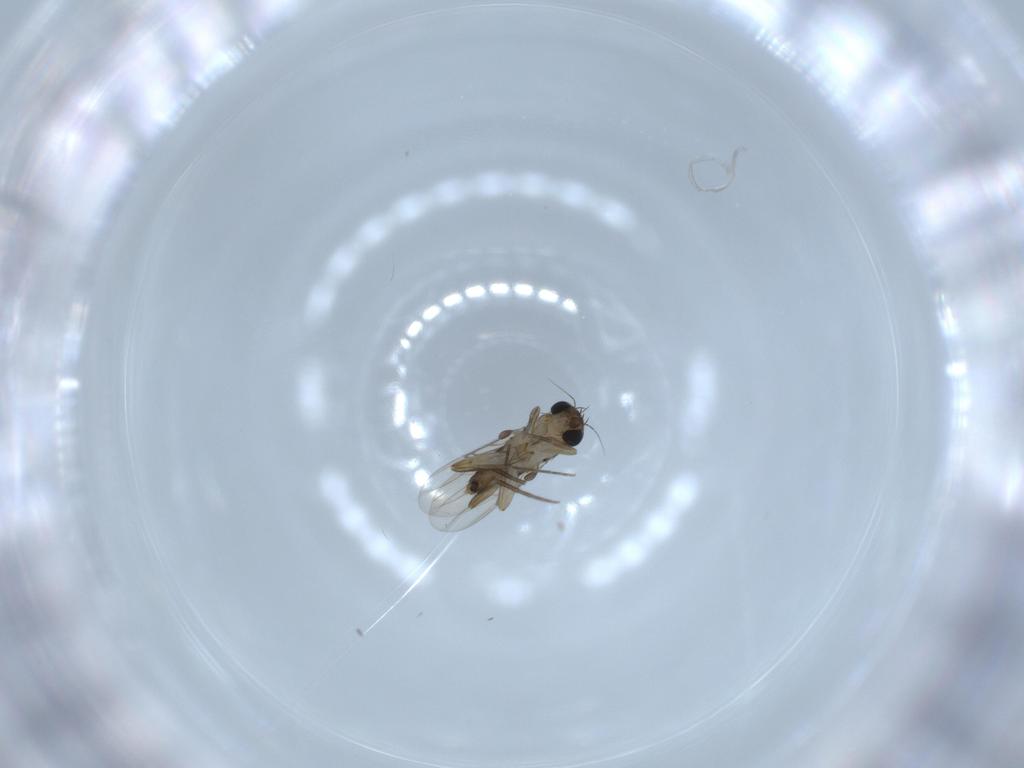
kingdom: Animalia
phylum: Arthropoda
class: Insecta
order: Diptera
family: Phoridae
